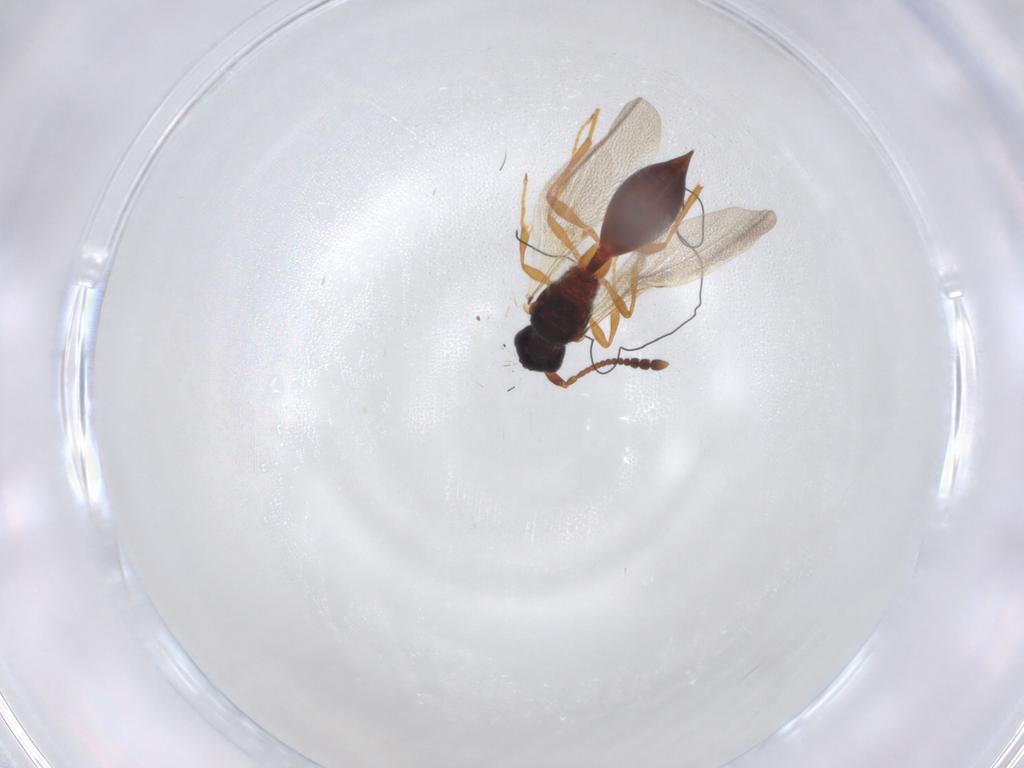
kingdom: Animalia
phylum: Arthropoda
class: Insecta
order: Hymenoptera
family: Diapriidae
